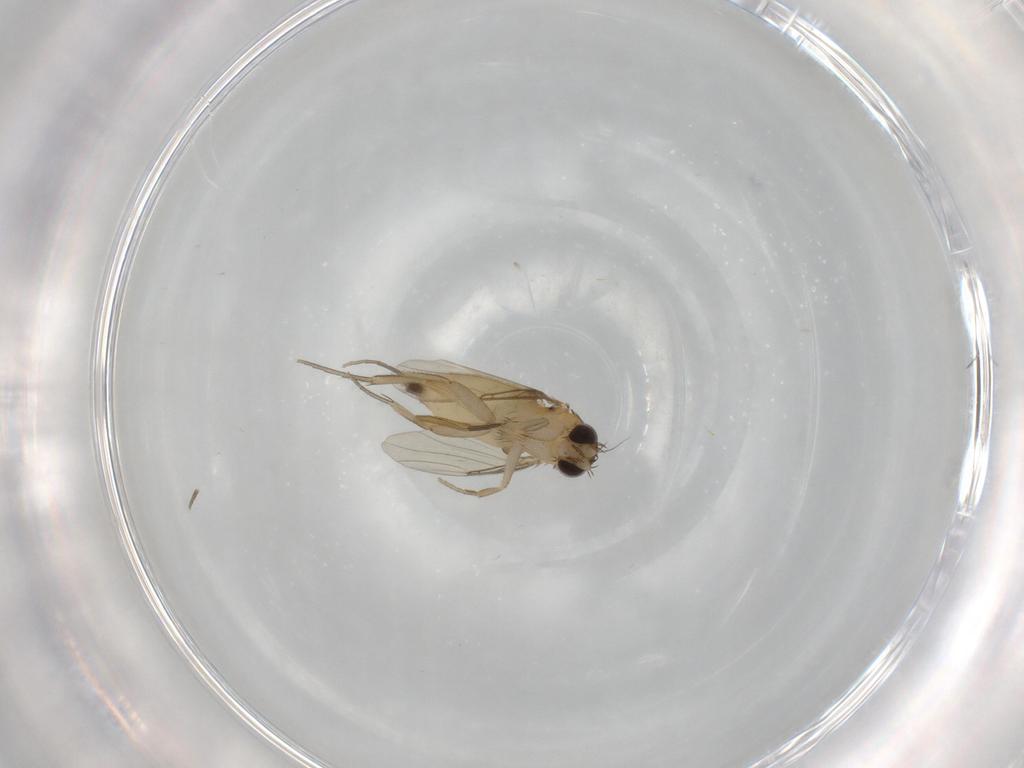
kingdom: Animalia
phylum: Arthropoda
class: Insecta
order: Diptera
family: Phoridae
